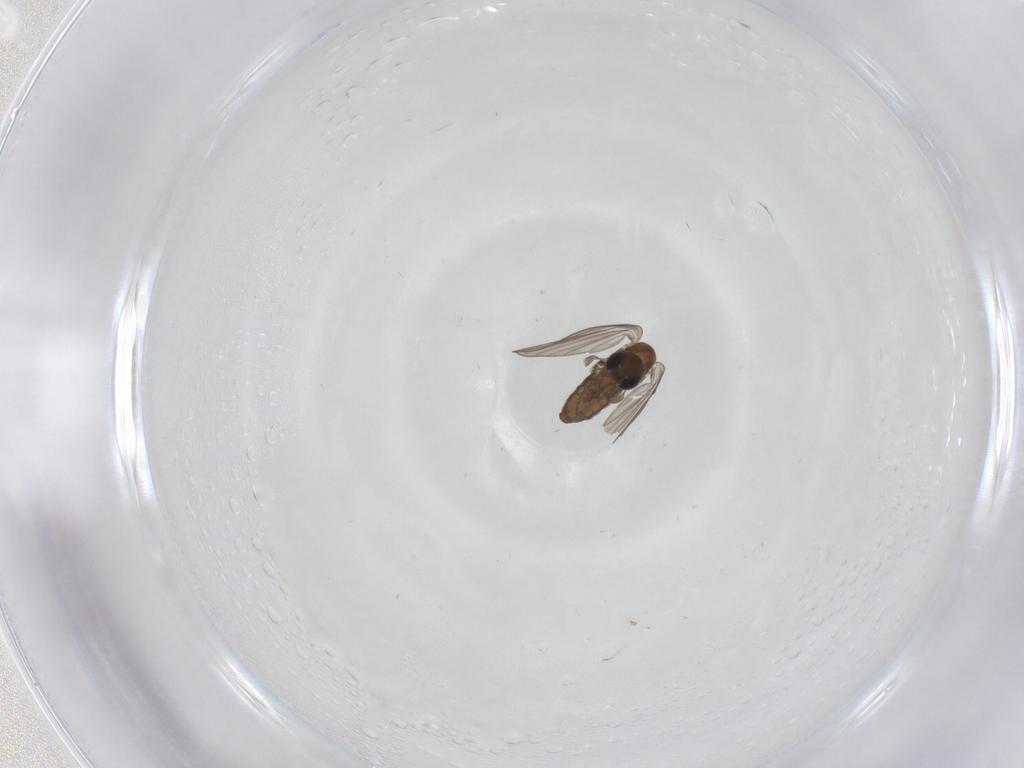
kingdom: Animalia
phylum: Arthropoda
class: Insecta
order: Diptera
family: Psychodidae
